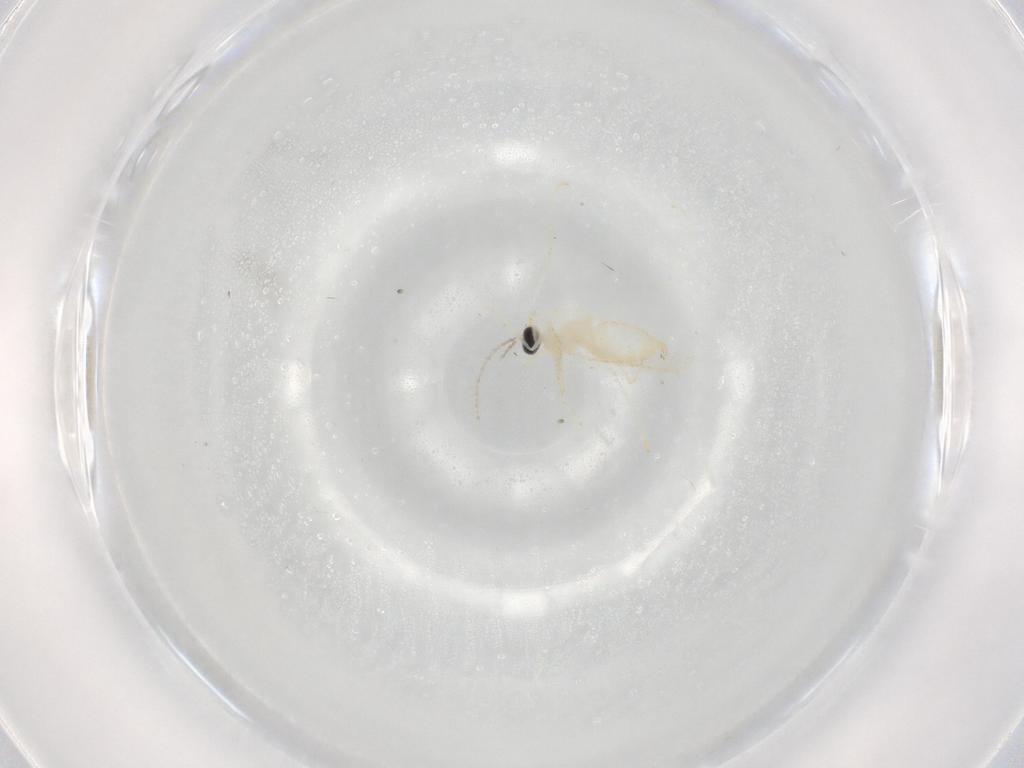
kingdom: Animalia
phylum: Arthropoda
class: Insecta
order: Diptera
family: Cecidomyiidae
